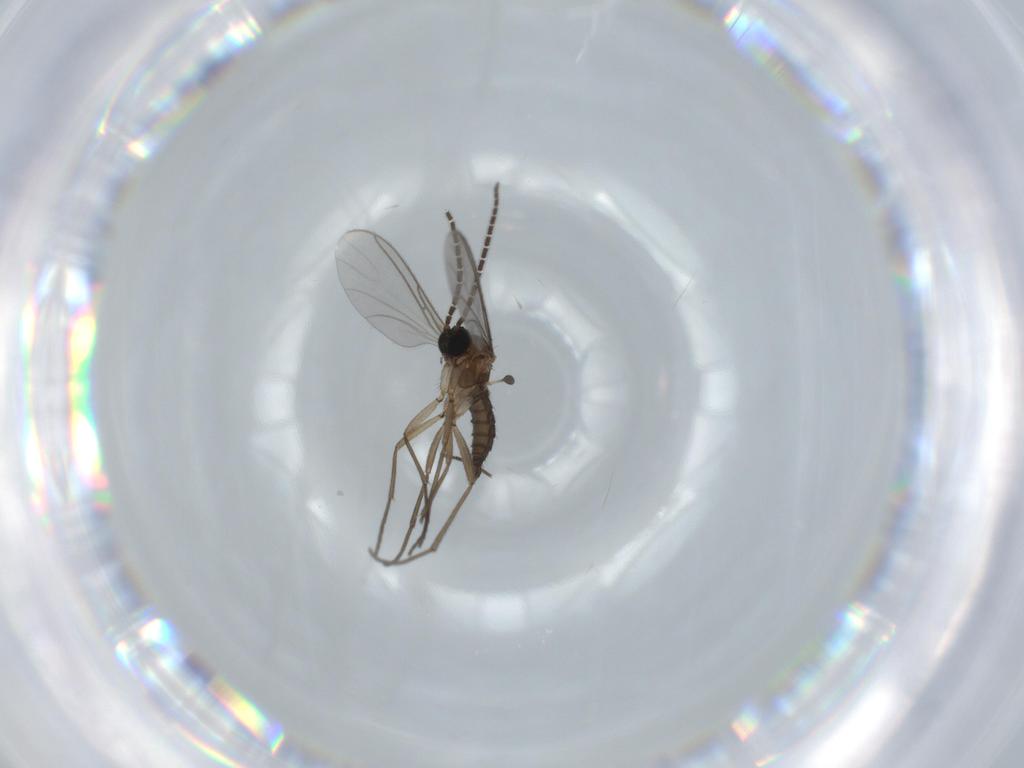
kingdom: Animalia
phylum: Arthropoda
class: Insecta
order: Diptera
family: Sciaridae
